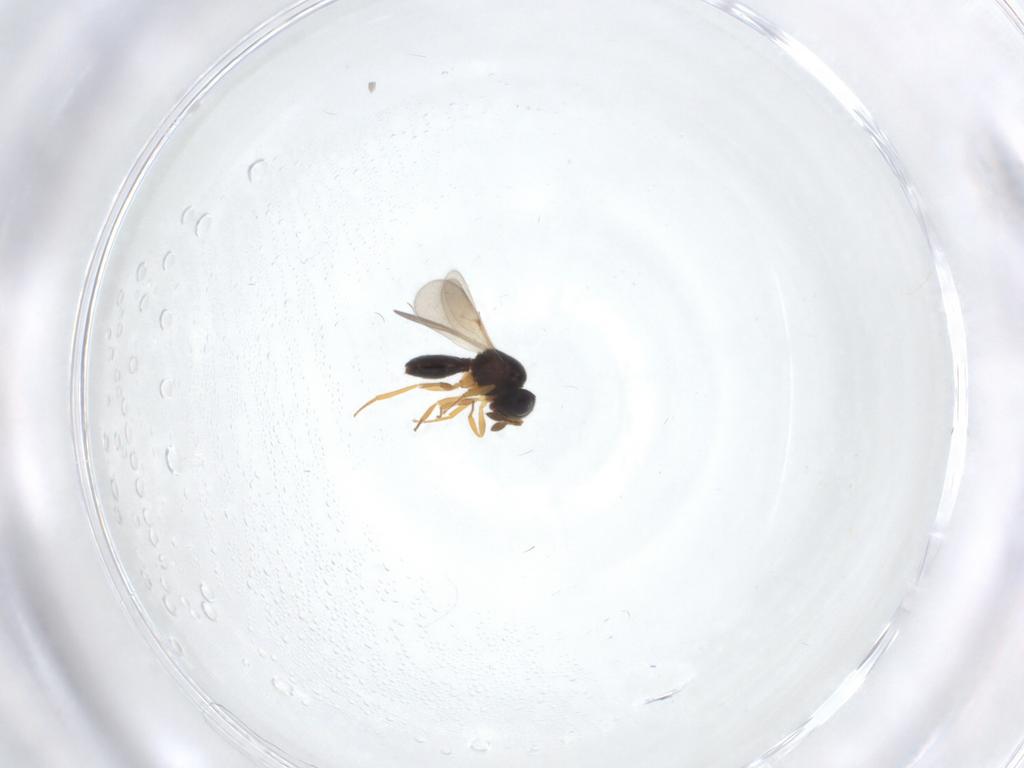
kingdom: Animalia
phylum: Arthropoda
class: Insecta
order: Hymenoptera
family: Scelionidae
